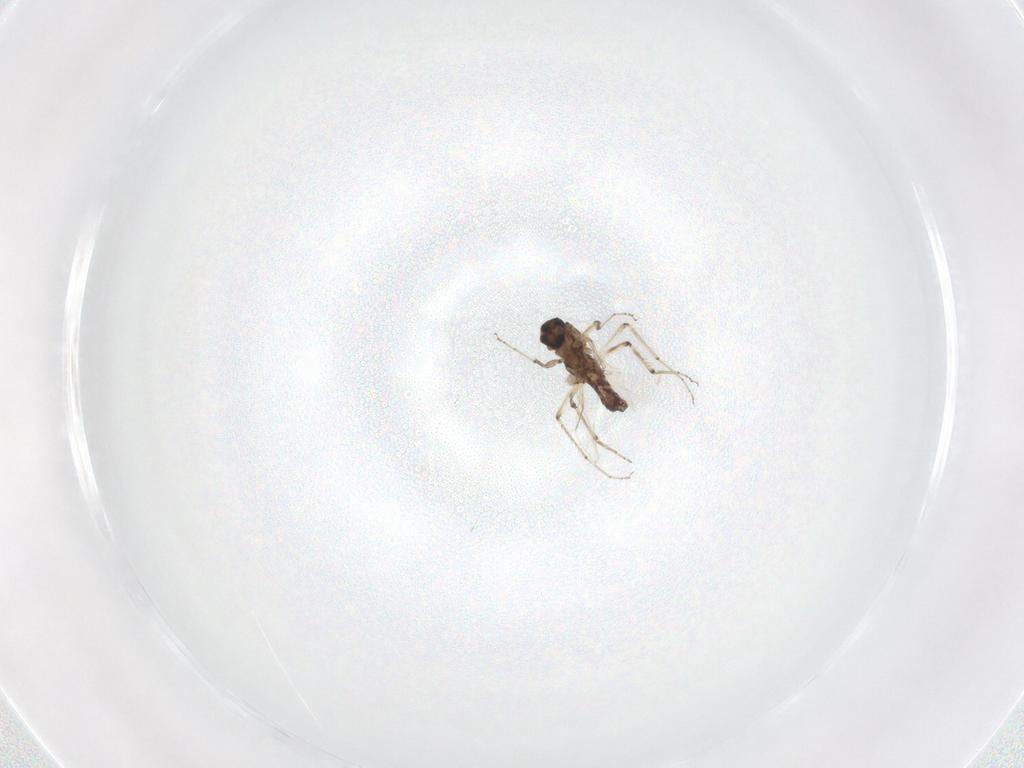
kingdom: Animalia
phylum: Arthropoda
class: Insecta
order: Diptera
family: Ceratopogonidae
